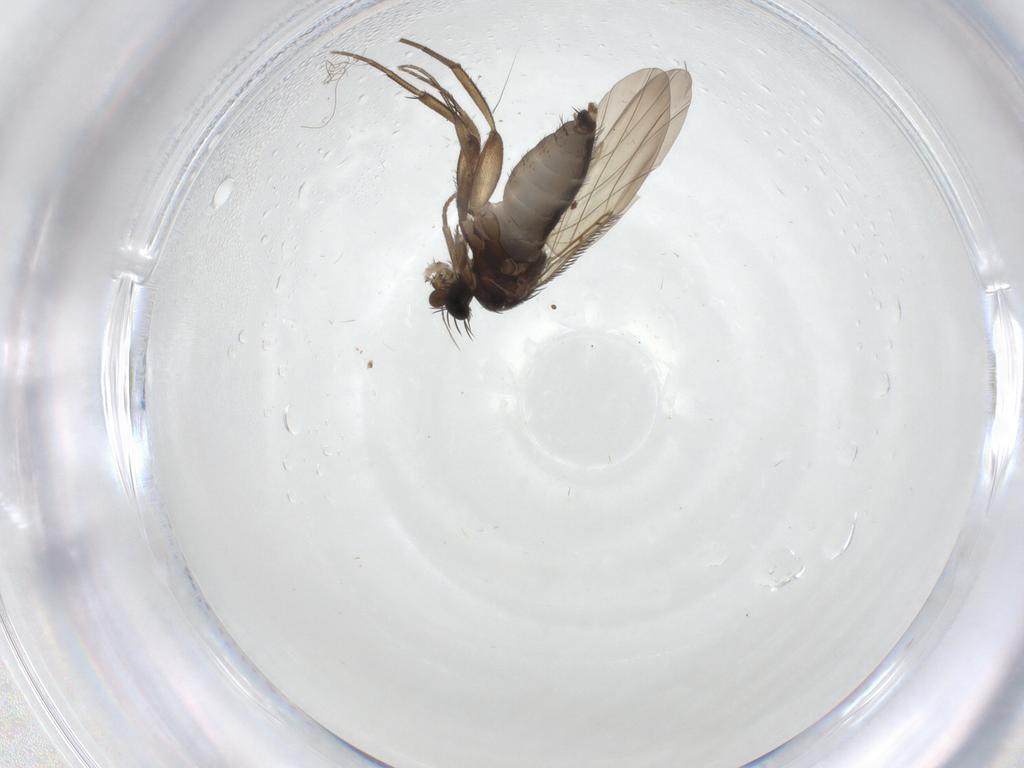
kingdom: Animalia
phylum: Arthropoda
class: Insecta
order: Diptera
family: Phoridae
